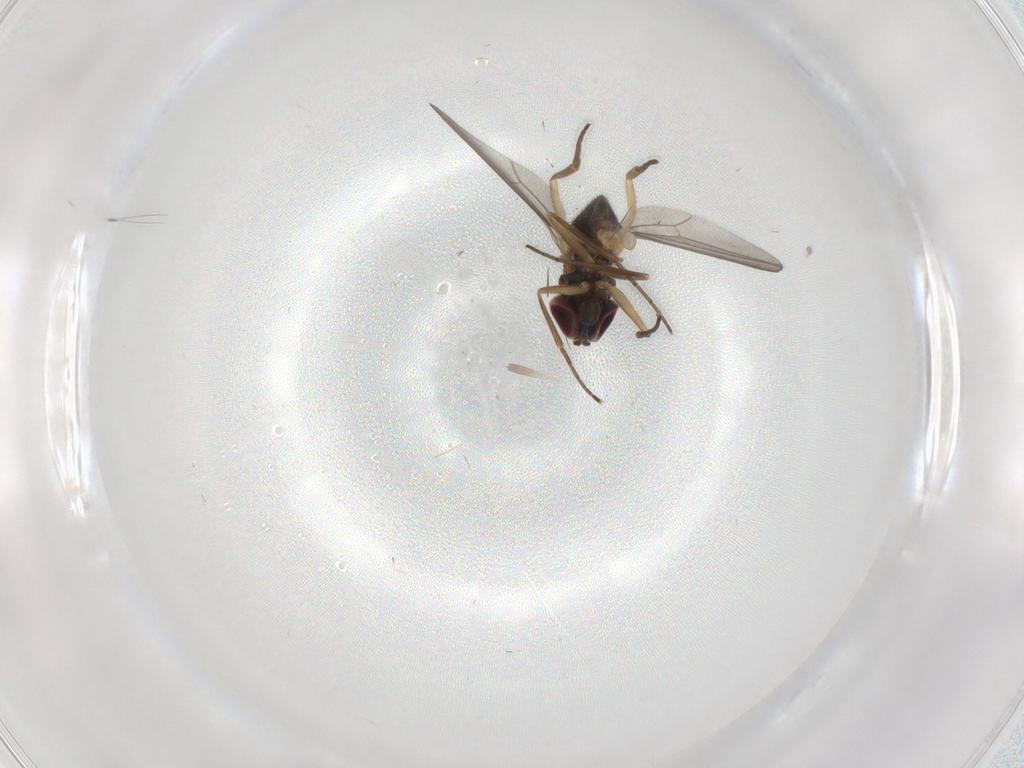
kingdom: Animalia
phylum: Arthropoda
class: Insecta
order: Diptera
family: Dolichopodidae
